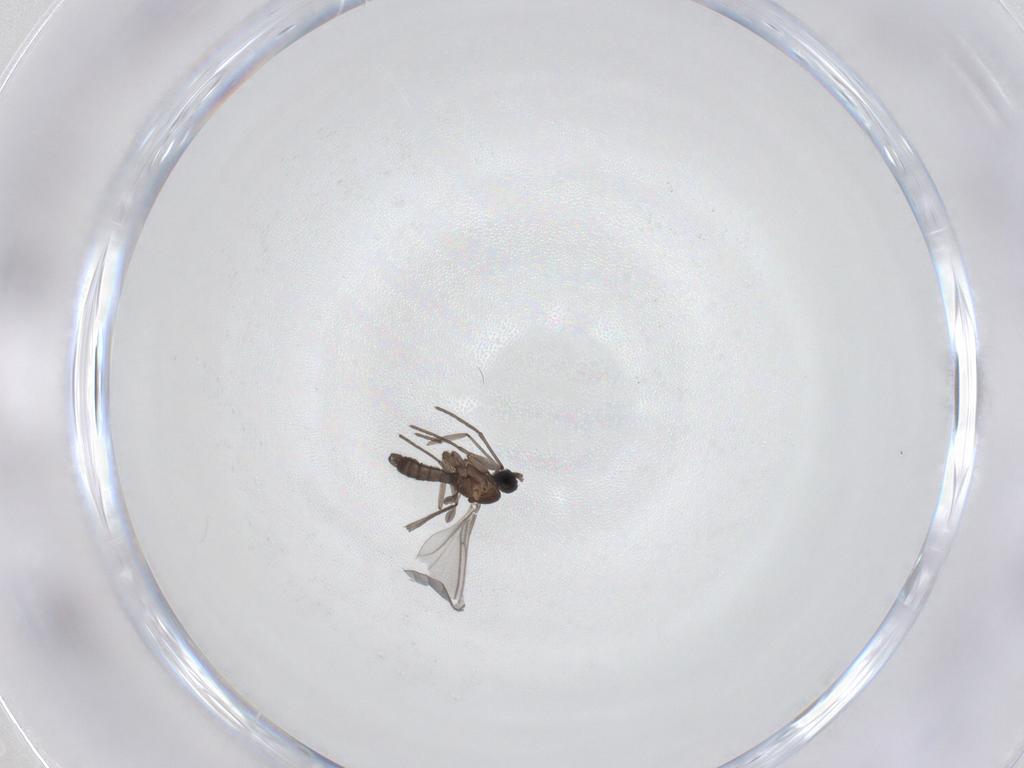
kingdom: Animalia
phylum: Arthropoda
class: Insecta
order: Diptera
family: Sciaridae
